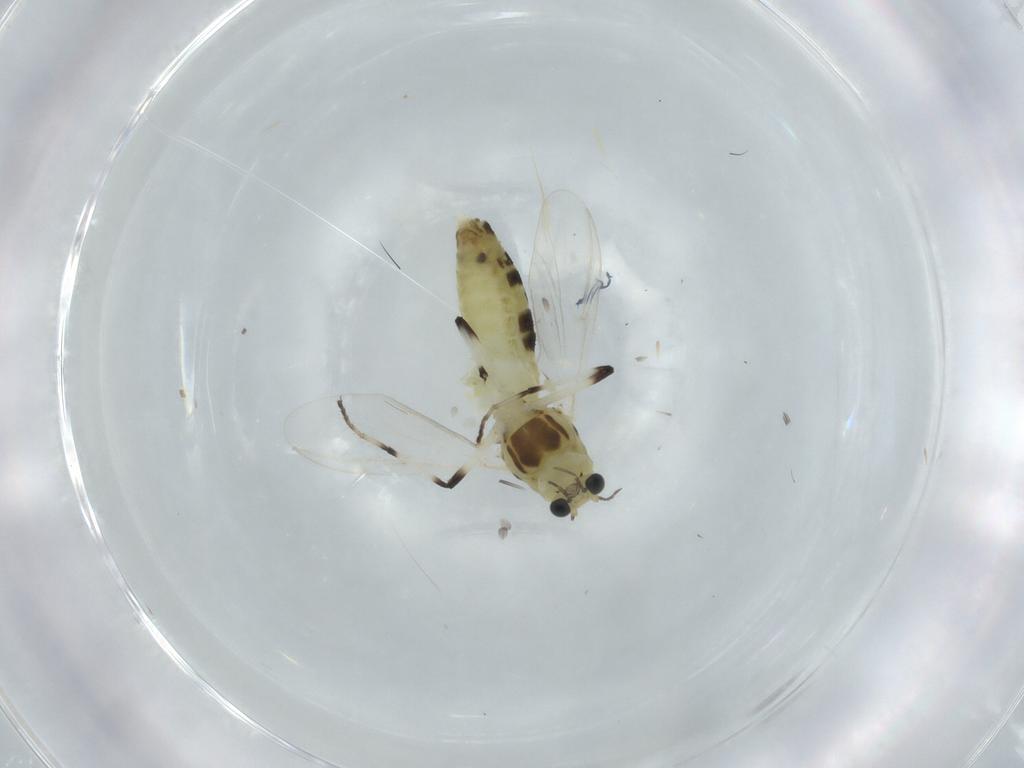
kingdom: Animalia
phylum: Arthropoda
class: Insecta
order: Diptera
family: Chironomidae
